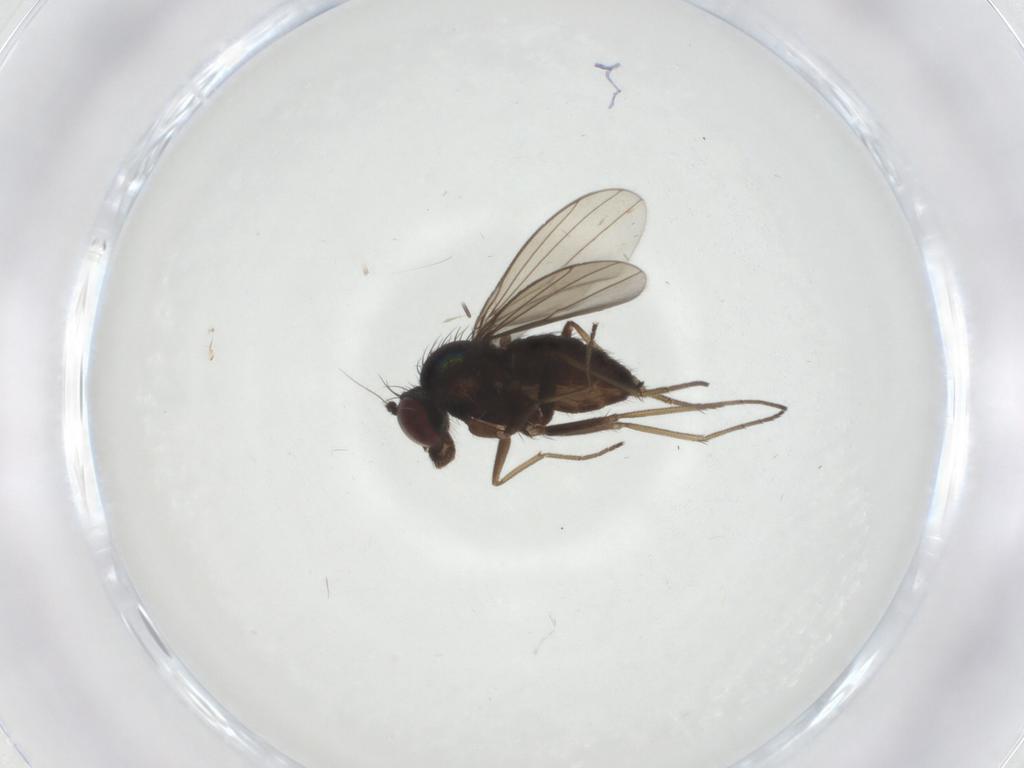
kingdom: Animalia
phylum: Arthropoda
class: Insecta
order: Diptera
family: Dolichopodidae
